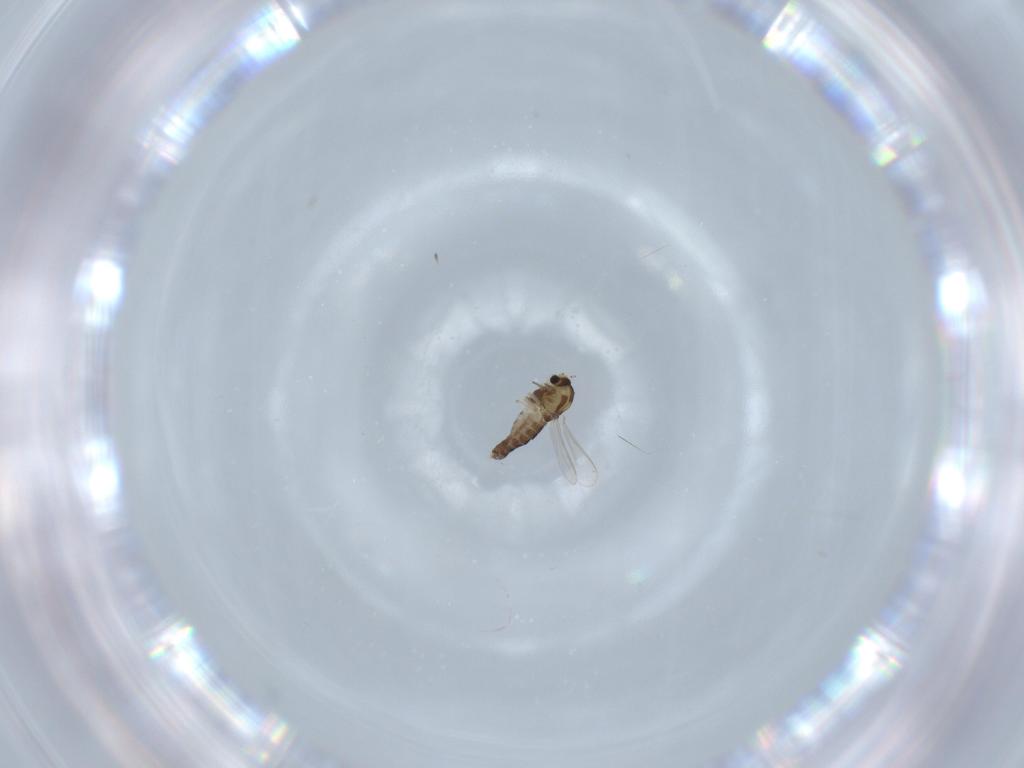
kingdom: Animalia
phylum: Arthropoda
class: Insecta
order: Diptera
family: Chironomidae
